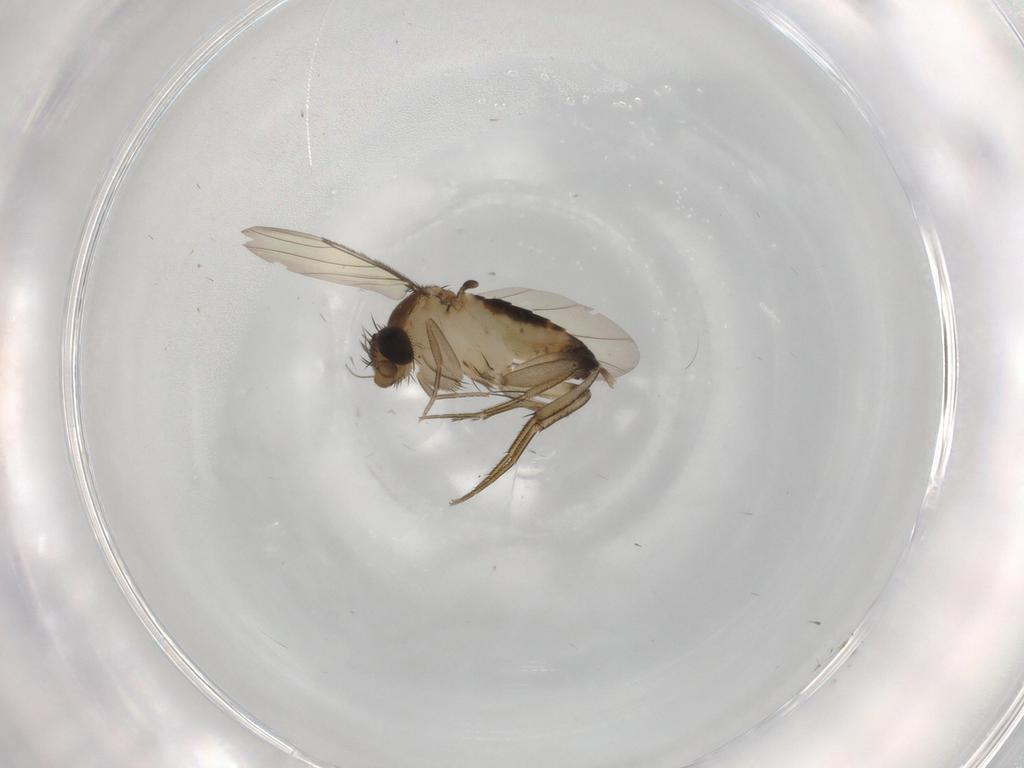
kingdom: Animalia
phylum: Arthropoda
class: Insecta
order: Diptera
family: Phoridae
